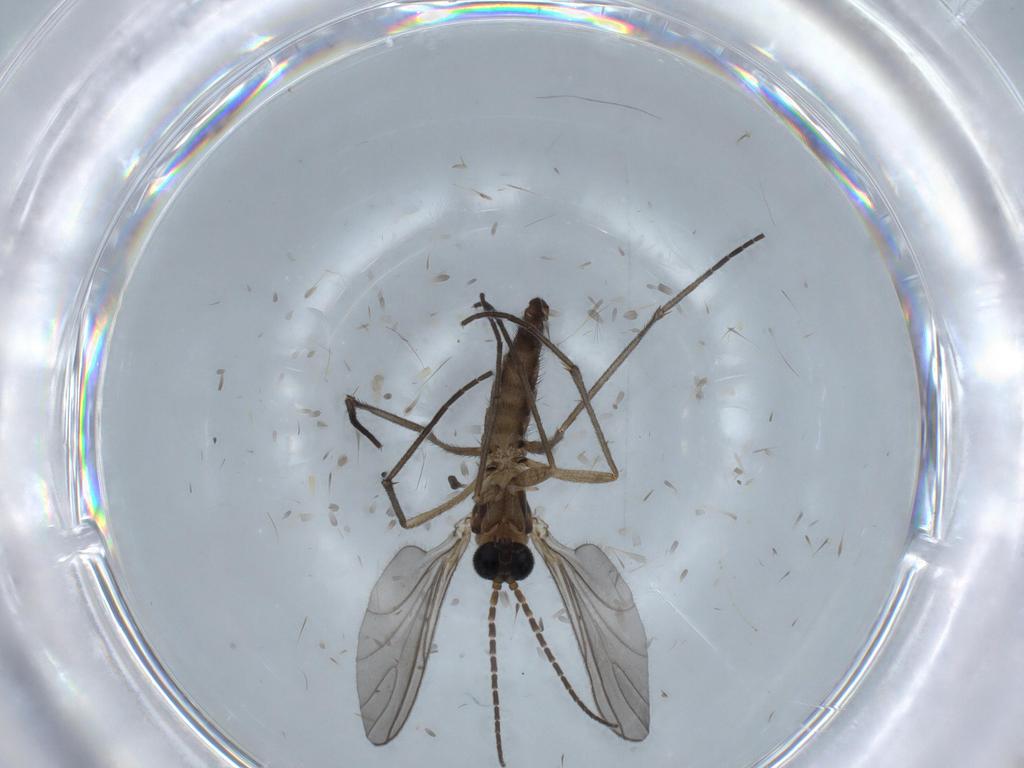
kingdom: Animalia
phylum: Arthropoda
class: Insecta
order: Diptera
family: Sciaridae
